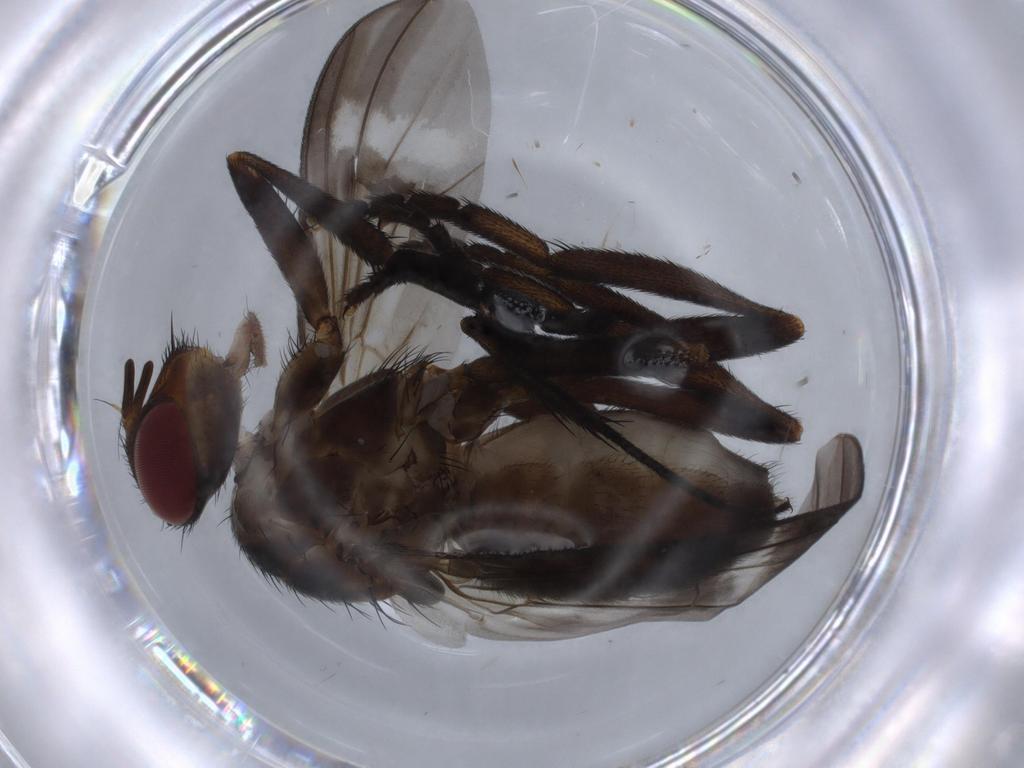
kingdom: Animalia
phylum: Arthropoda
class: Insecta
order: Diptera
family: Calliphoridae
